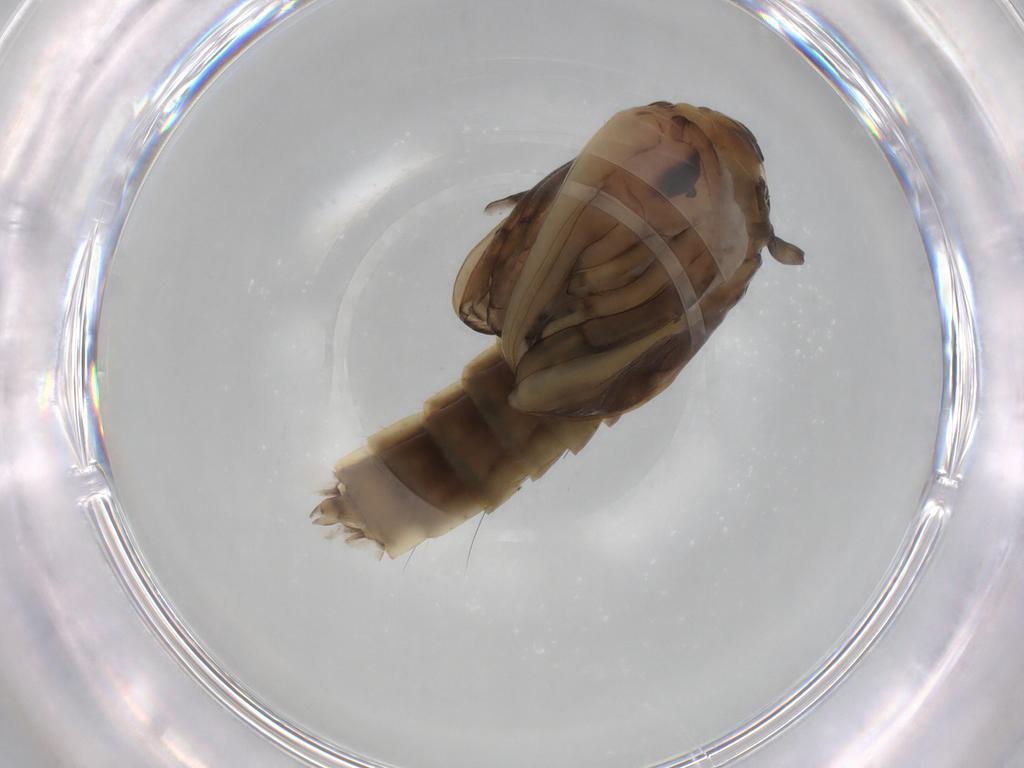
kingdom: Animalia
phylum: Arthropoda
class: Insecta
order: Diptera
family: Culicidae
